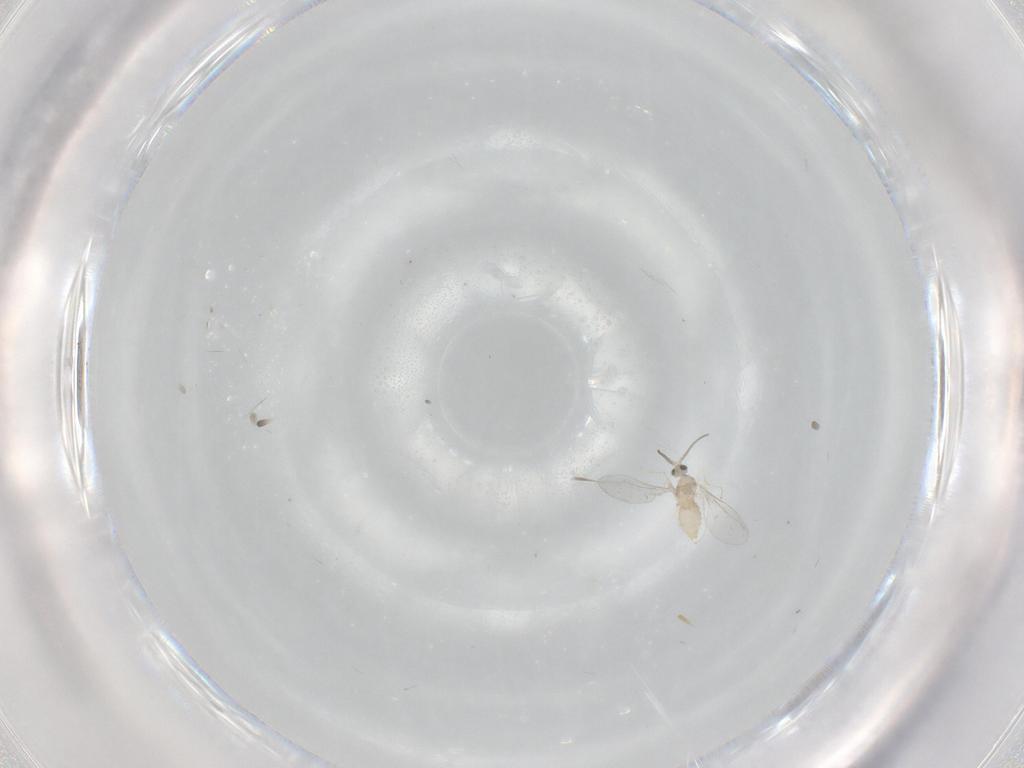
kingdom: Animalia
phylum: Arthropoda
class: Insecta
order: Diptera
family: Cecidomyiidae
